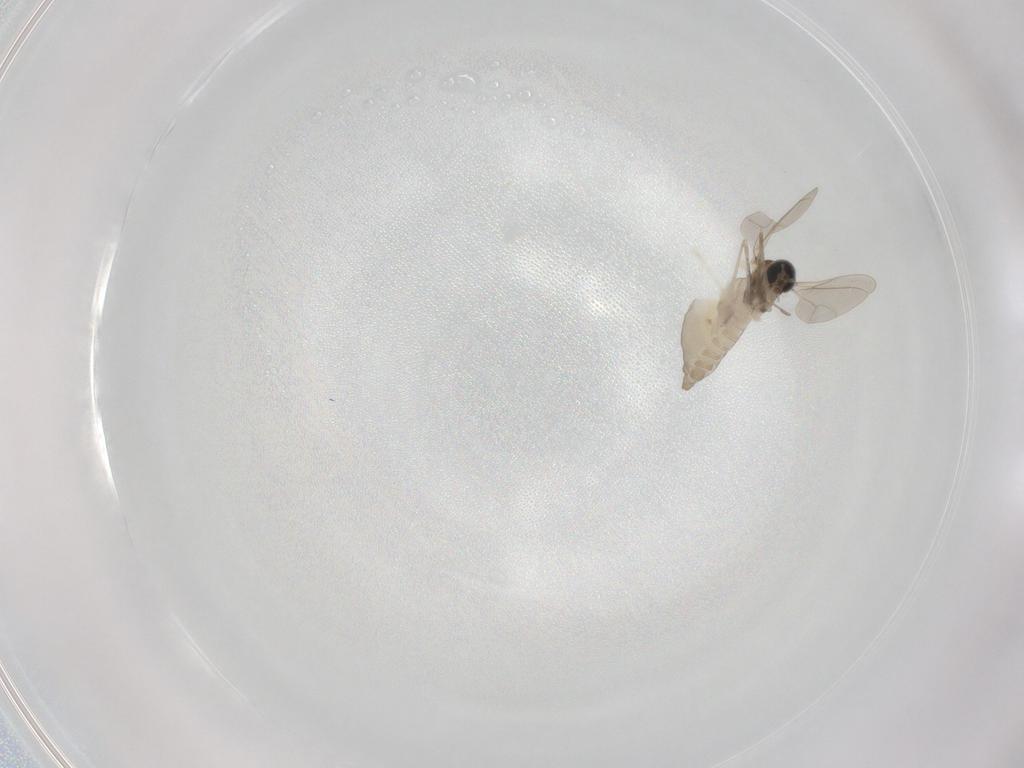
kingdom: Animalia
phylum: Arthropoda
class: Insecta
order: Diptera
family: Cecidomyiidae
